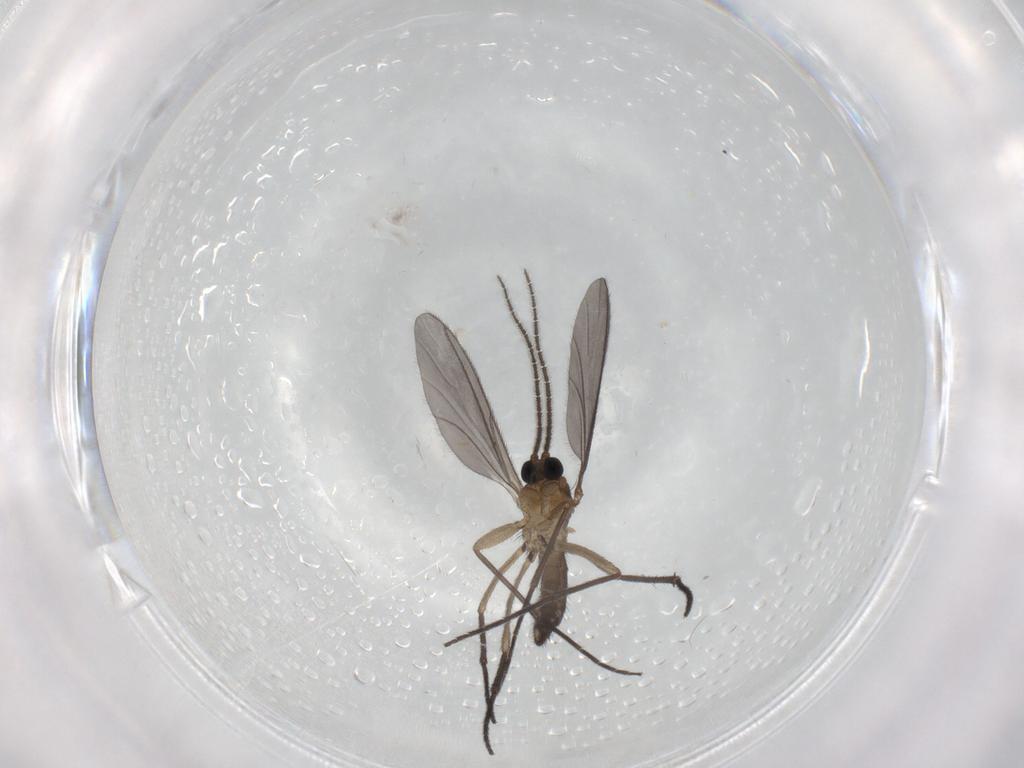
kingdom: Animalia
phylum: Arthropoda
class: Insecta
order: Diptera
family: Sciaridae
